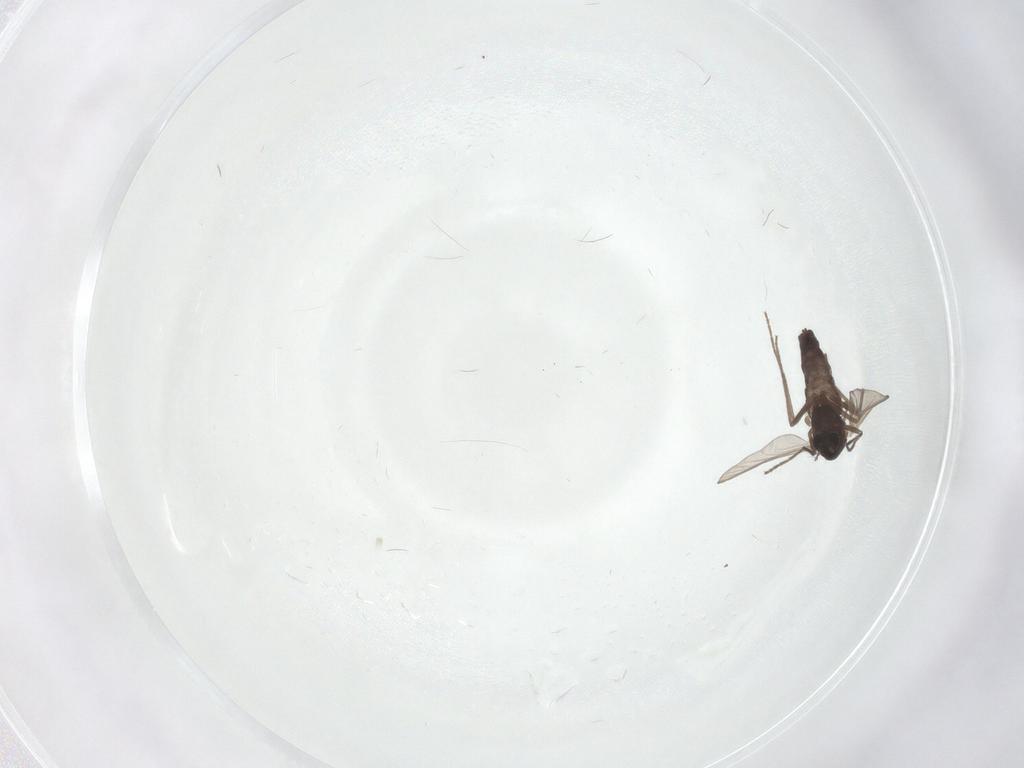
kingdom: Animalia
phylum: Arthropoda
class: Insecta
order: Diptera
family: Chironomidae
